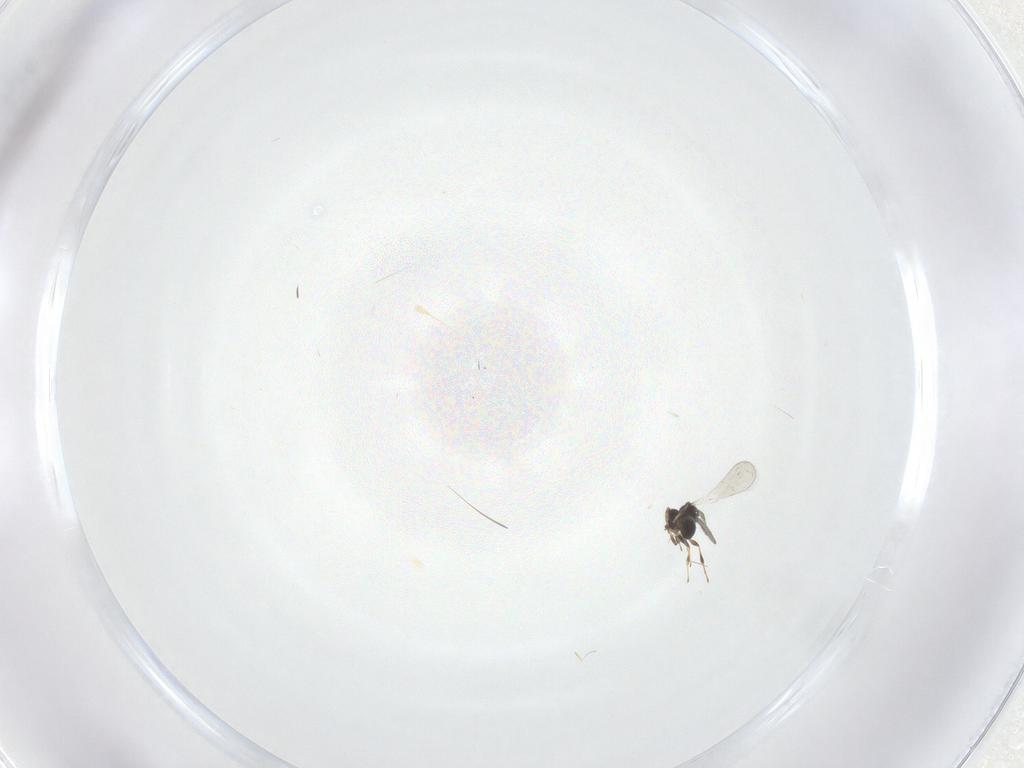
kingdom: Animalia
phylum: Arthropoda
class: Insecta
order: Hymenoptera
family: Platygastridae
